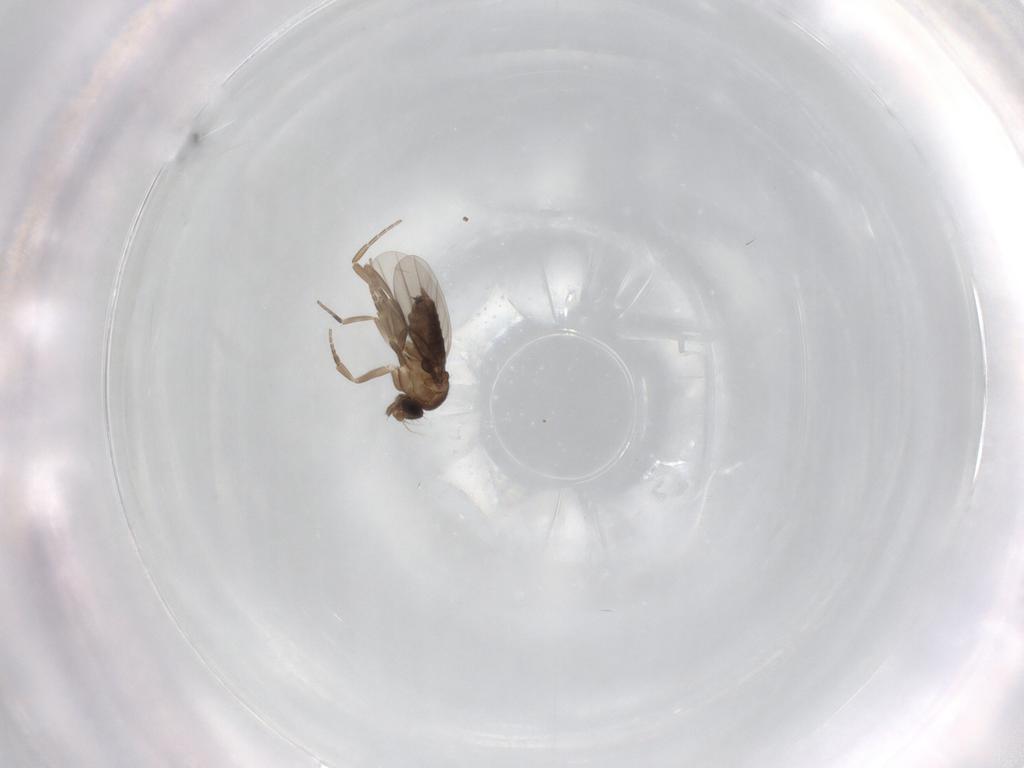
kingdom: Animalia
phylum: Arthropoda
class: Insecta
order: Diptera
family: Phoridae
